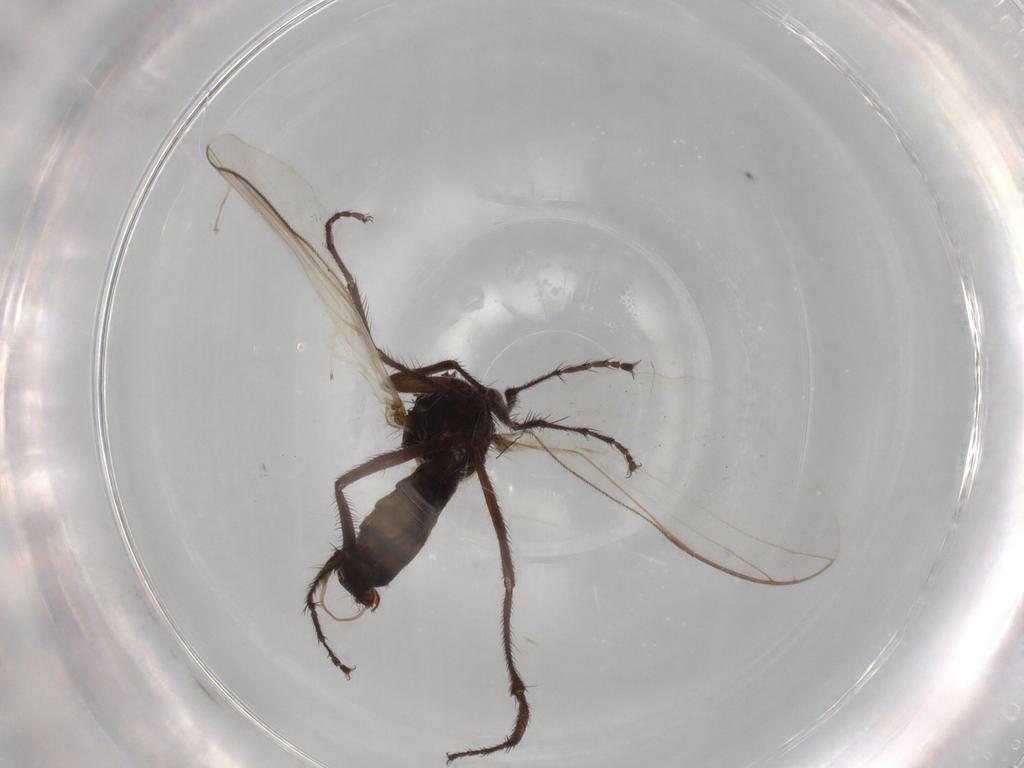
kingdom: Animalia
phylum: Arthropoda
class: Insecta
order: Diptera
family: Empididae
